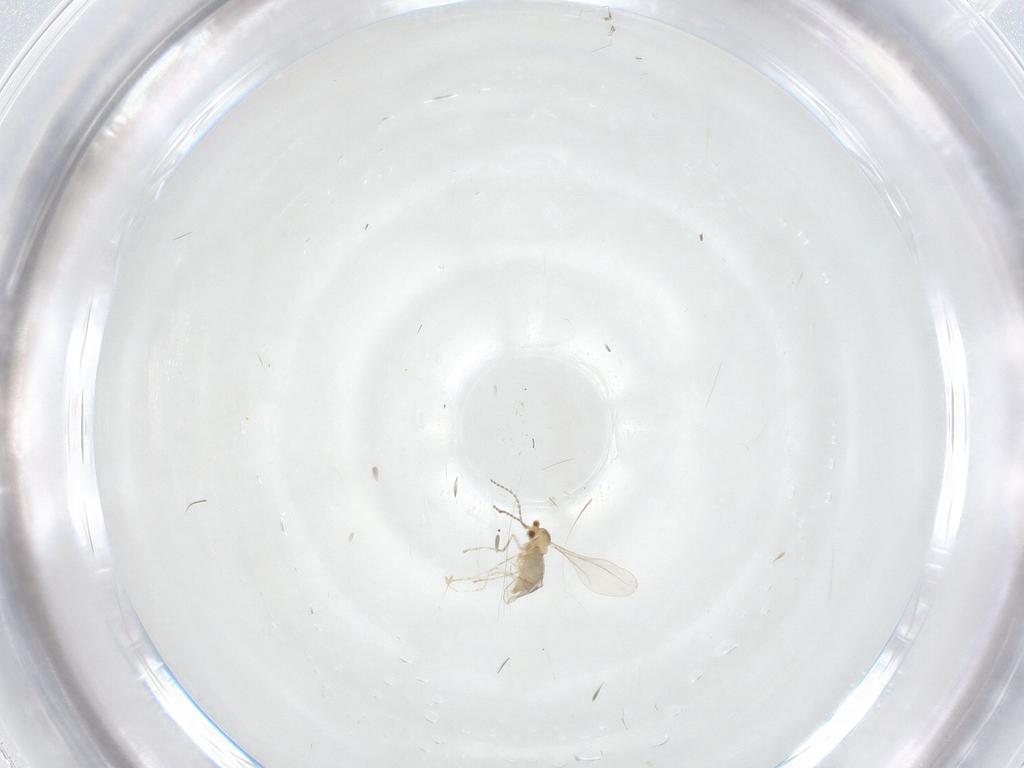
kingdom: Animalia
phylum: Arthropoda
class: Insecta
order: Diptera
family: Cecidomyiidae
